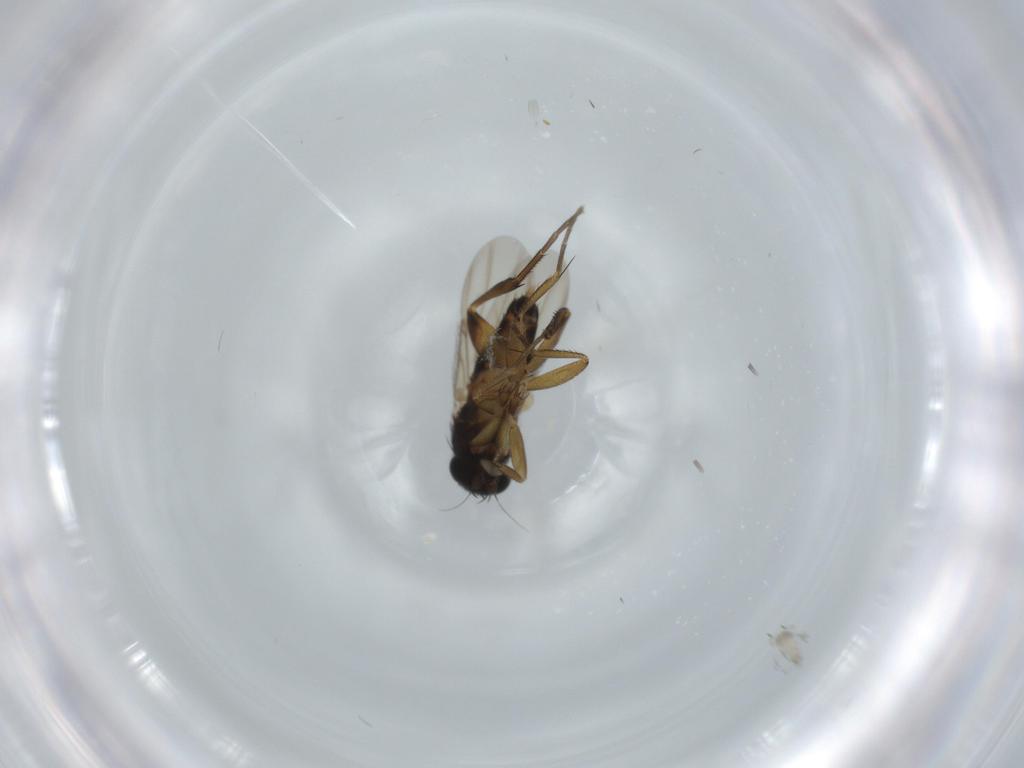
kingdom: Animalia
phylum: Arthropoda
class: Insecta
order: Diptera
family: Phoridae
